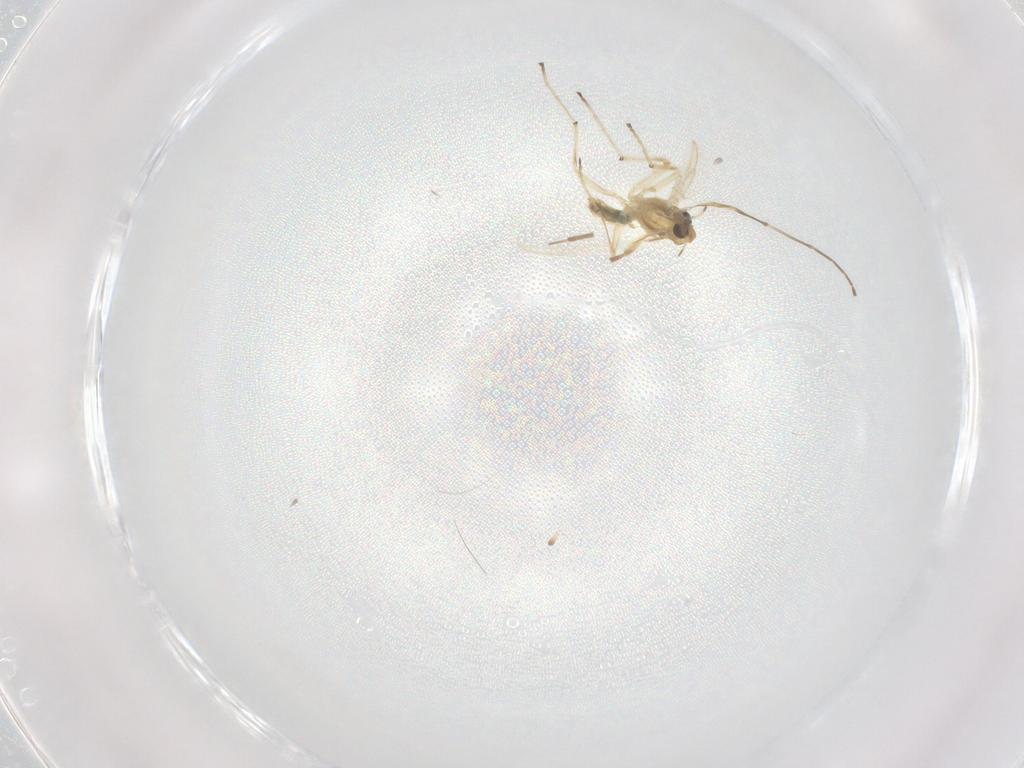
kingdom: Animalia
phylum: Arthropoda
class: Insecta
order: Diptera
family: Chironomidae
